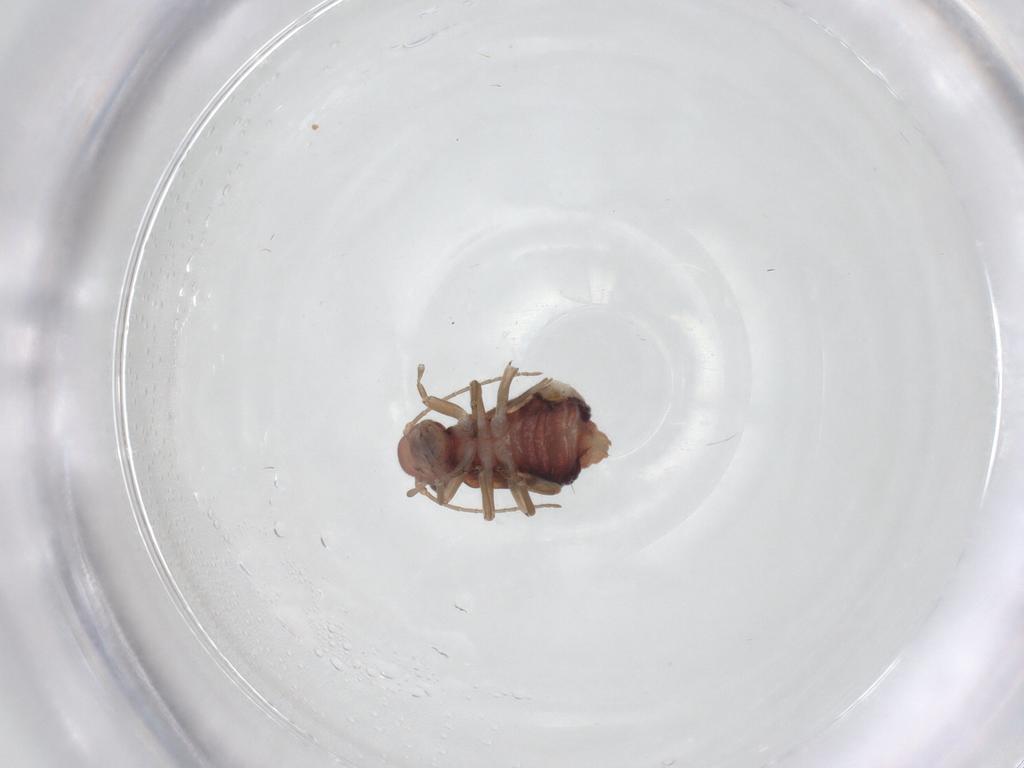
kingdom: Animalia
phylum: Arthropoda
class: Insecta
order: Psocodea
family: Caeciliusidae
